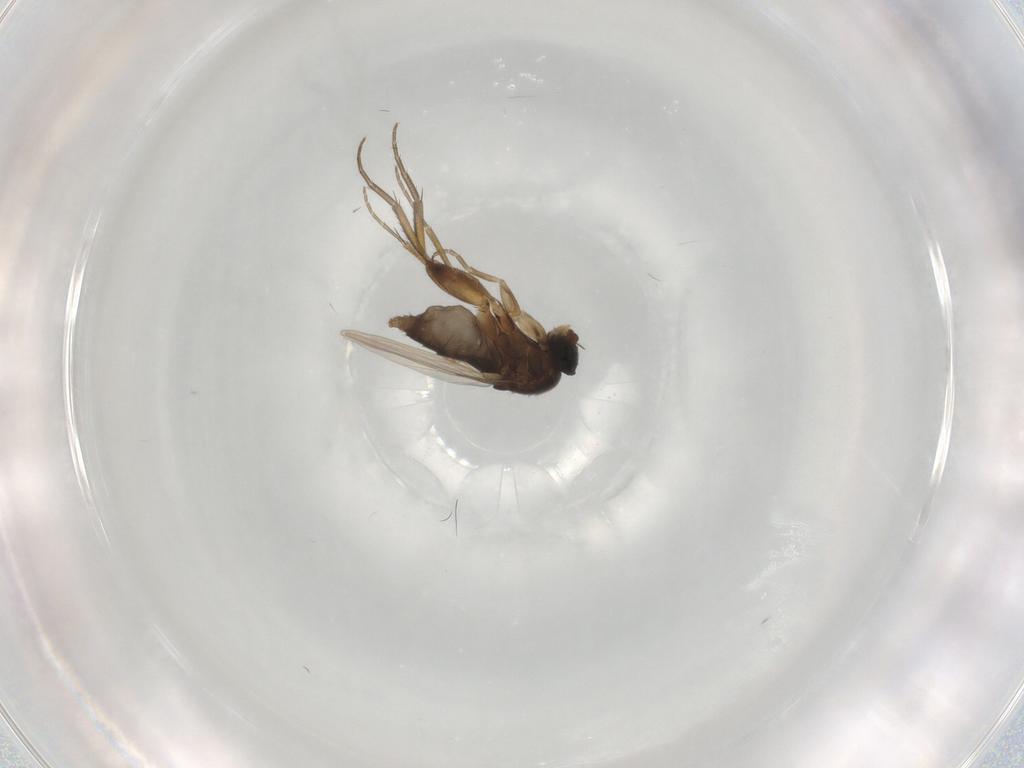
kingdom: Animalia
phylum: Arthropoda
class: Insecta
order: Diptera
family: Phoridae
